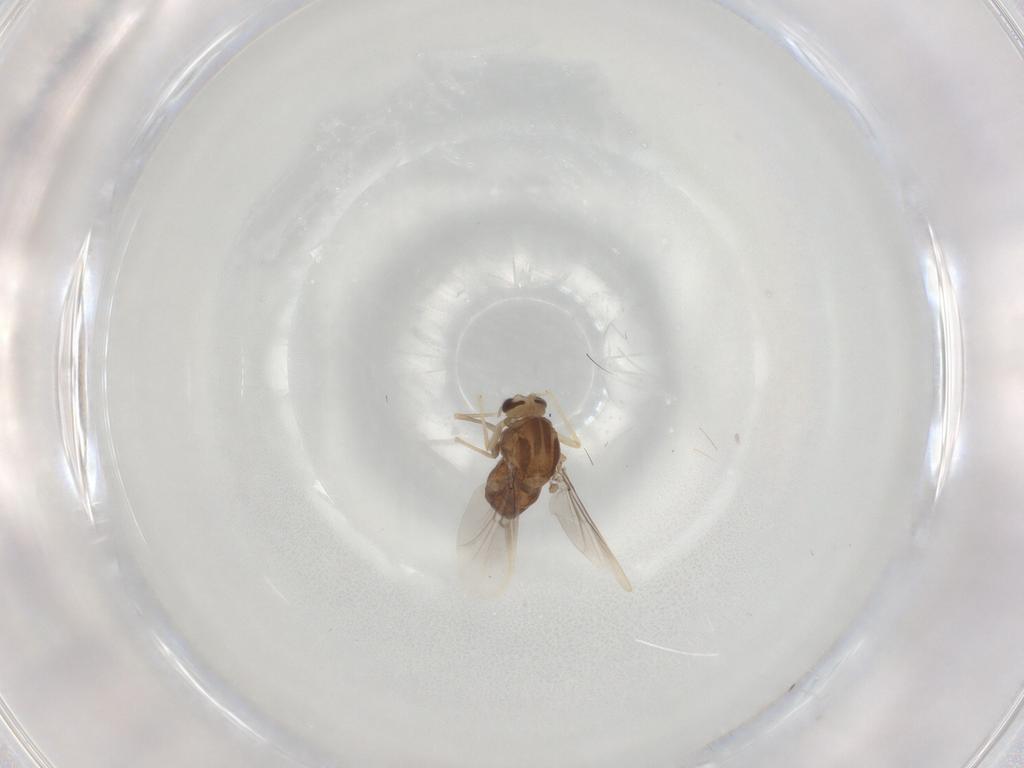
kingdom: Animalia
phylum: Arthropoda
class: Insecta
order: Diptera
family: Chironomidae
